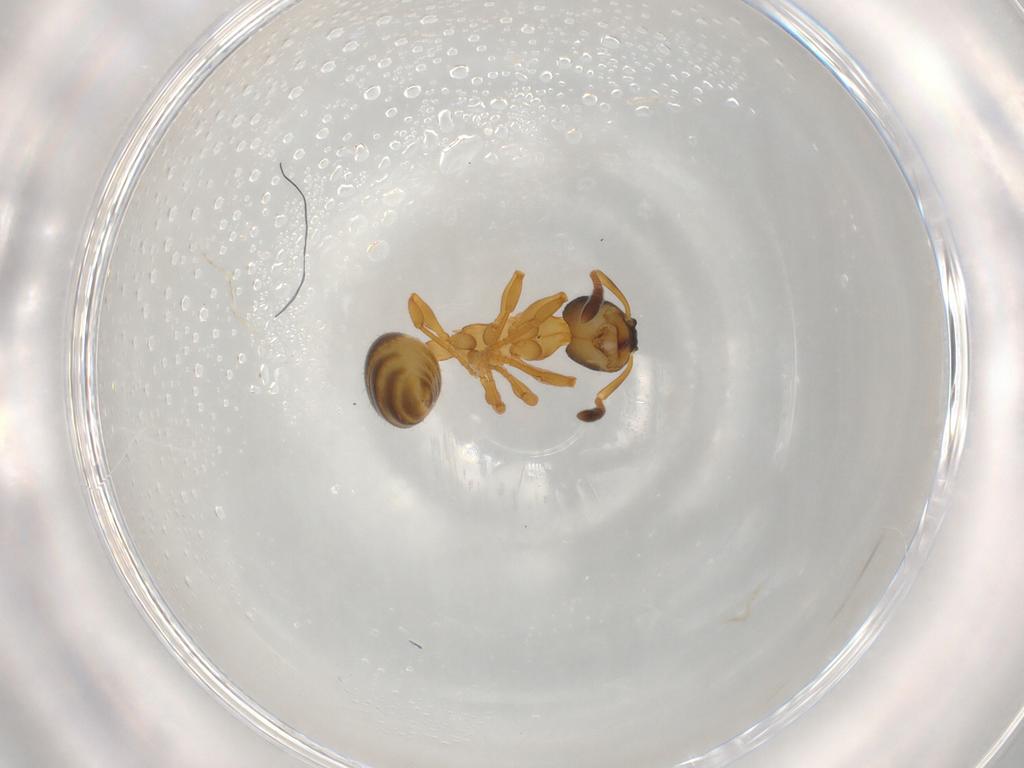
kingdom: Animalia
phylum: Arthropoda
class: Insecta
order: Hymenoptera
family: Formicidae
